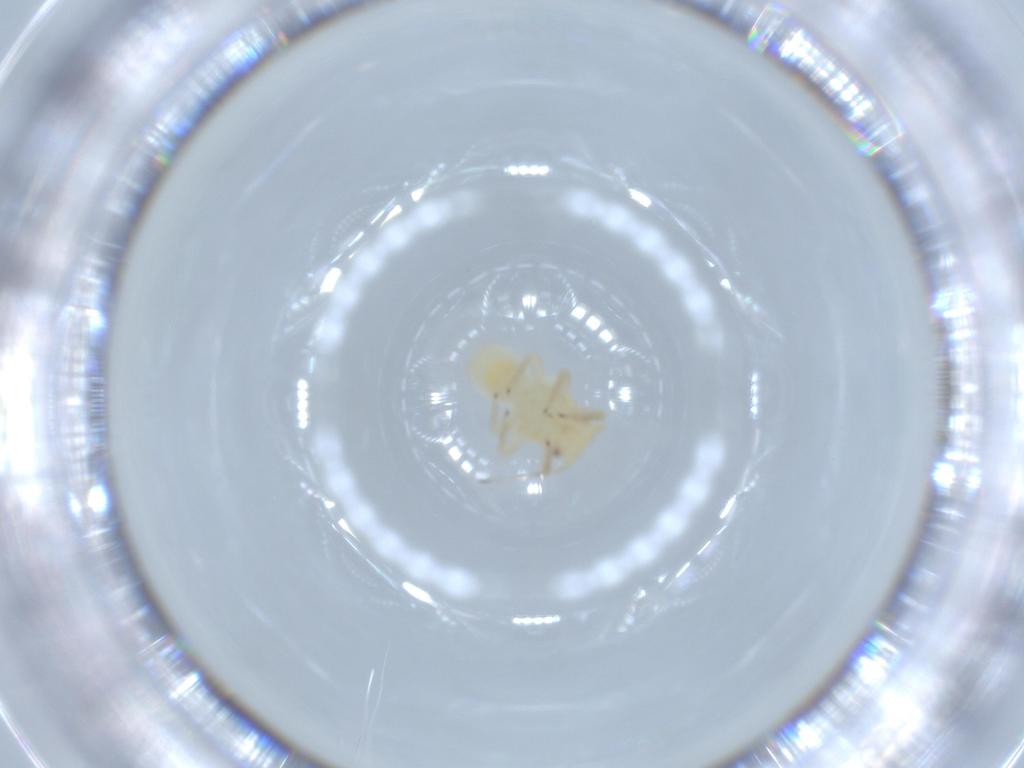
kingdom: Animalia
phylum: Arthropoda
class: Insecta
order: Hemiptera
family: Psyllidae
